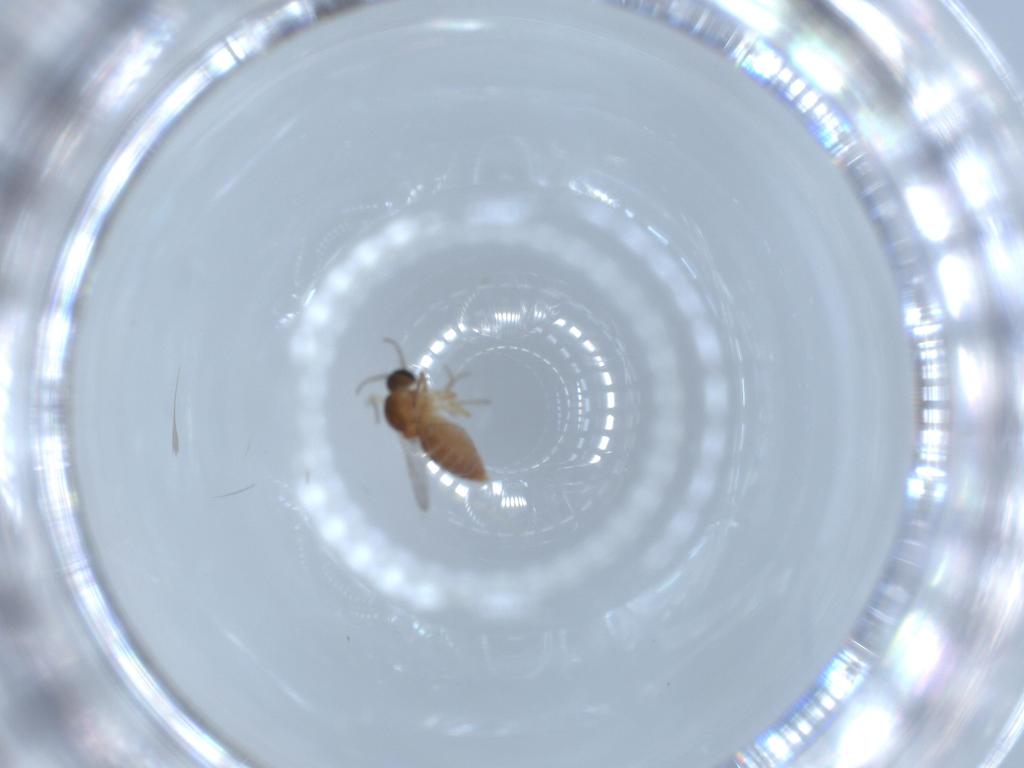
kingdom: Animalia
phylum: Arthropoda
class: Insecta
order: Diptera
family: Ceratopogonidae
